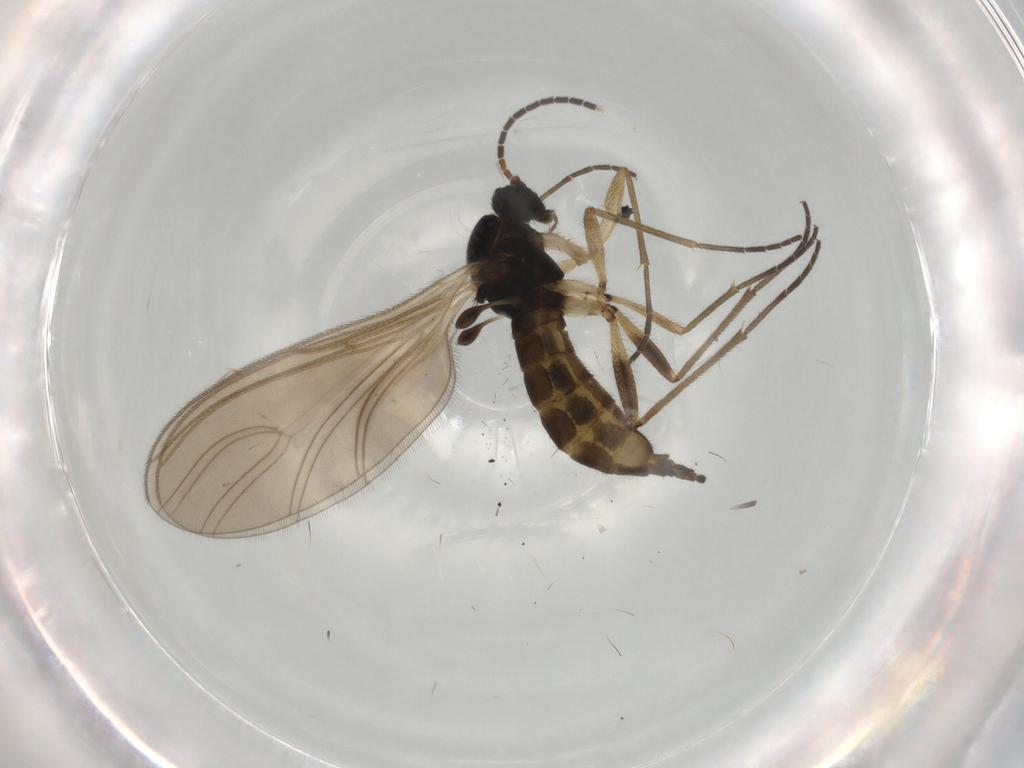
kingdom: Animalia
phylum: Arthropoda
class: Insecta
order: Diptera
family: Sciaridae
